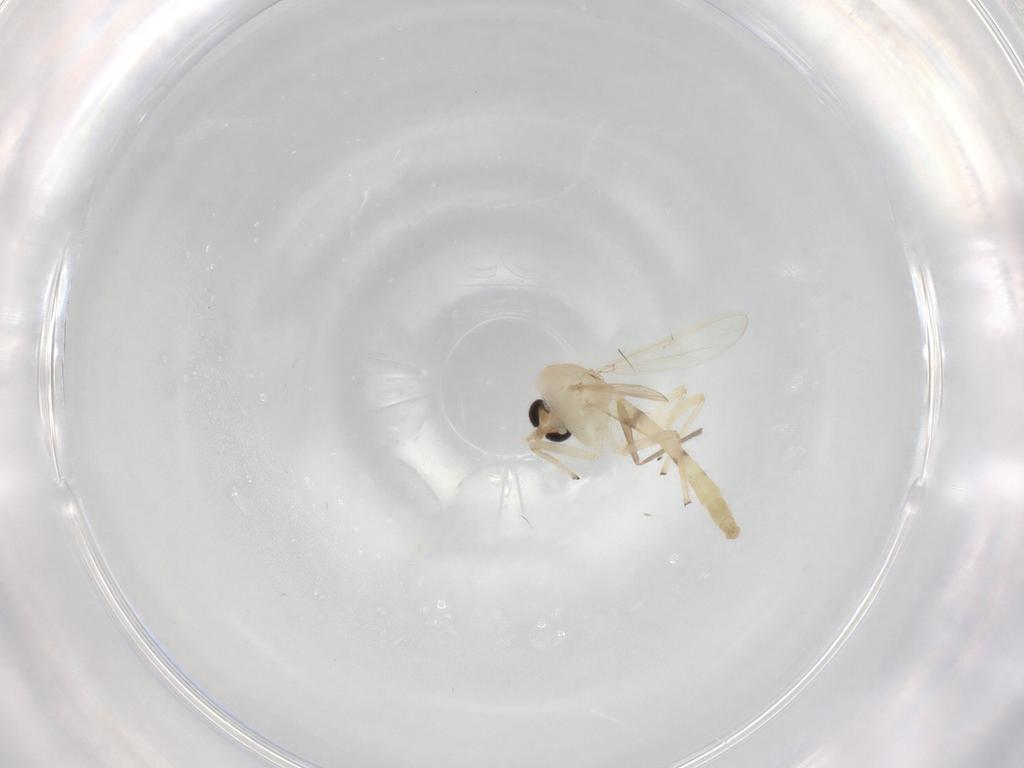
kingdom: Animalia
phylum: Arthropoda
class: Insecta
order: Diptera
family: Chironomidae
